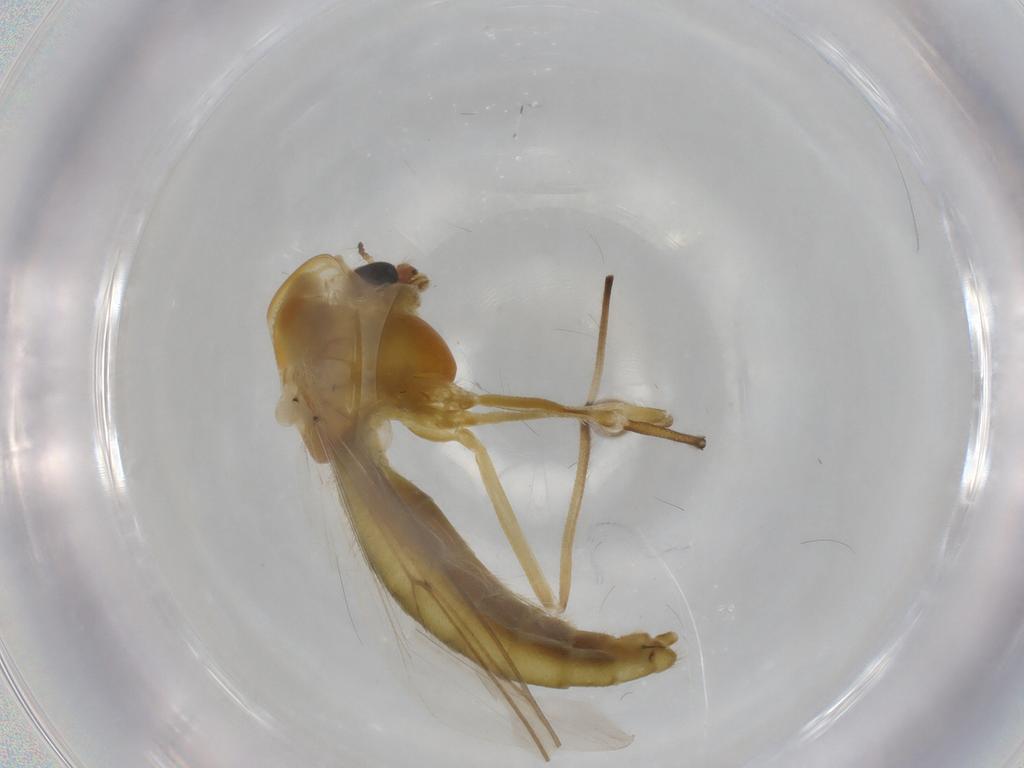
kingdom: Animalia
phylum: Arthropoda
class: Insecta
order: Diptera
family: Chironomidae
